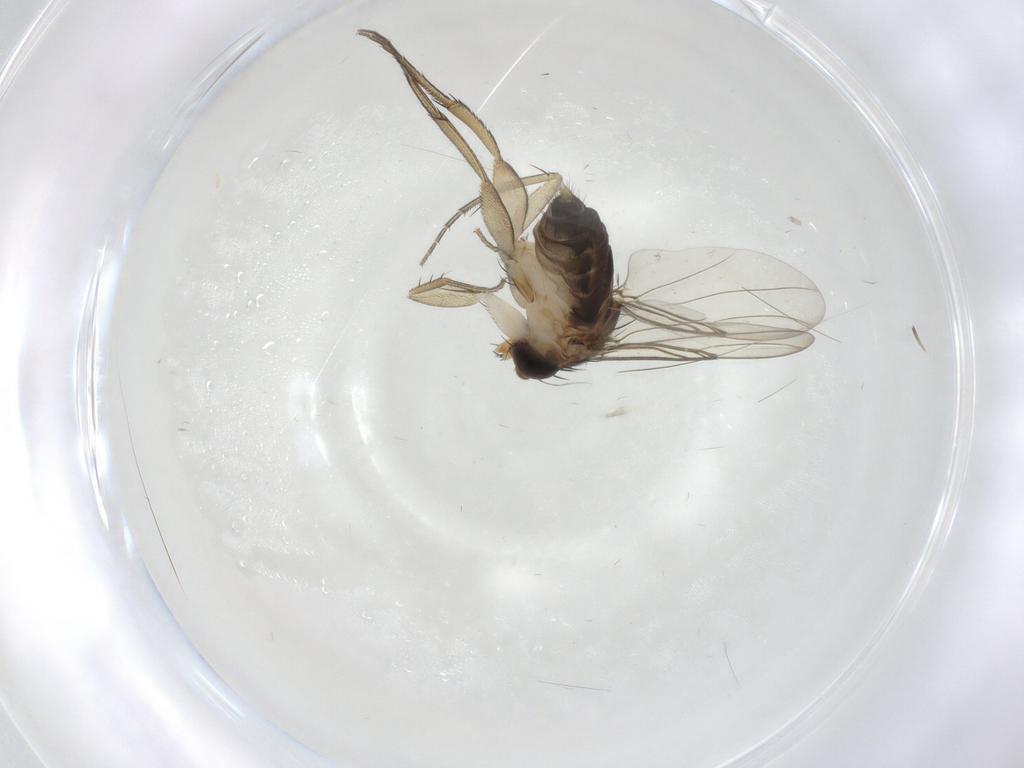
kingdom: Animalia
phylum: Arthropoda
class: Insecta
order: Diptera
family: Phoridae
